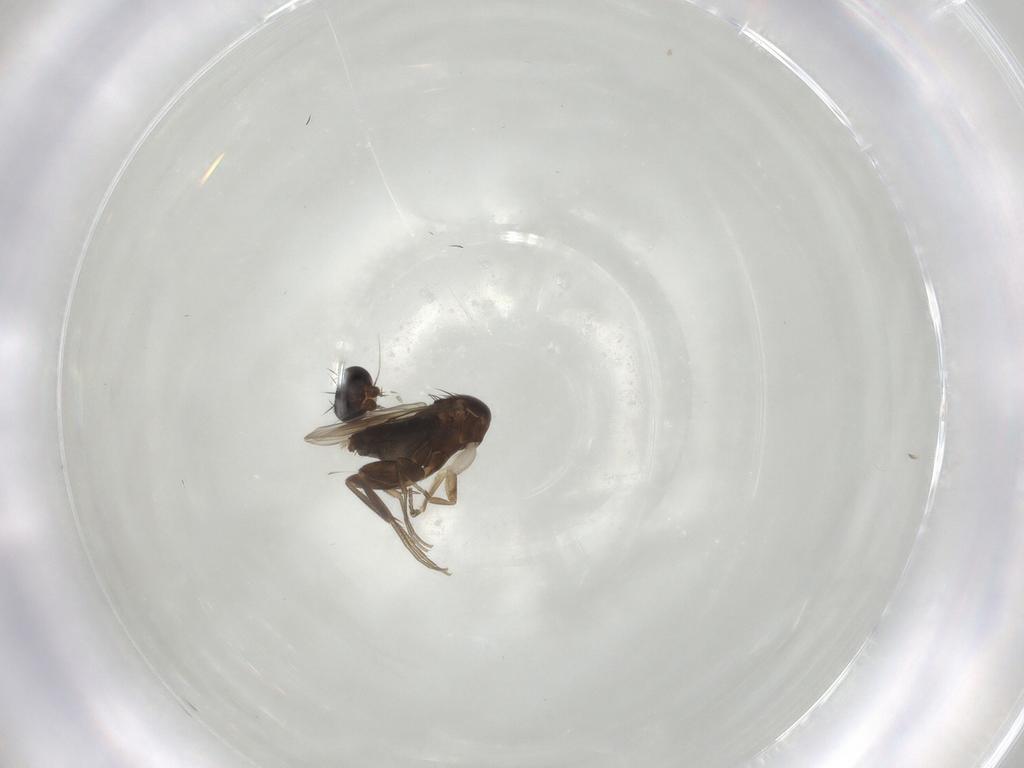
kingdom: Animalia
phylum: Arthropoda
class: Insecta
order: Diptera
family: Phoridae
